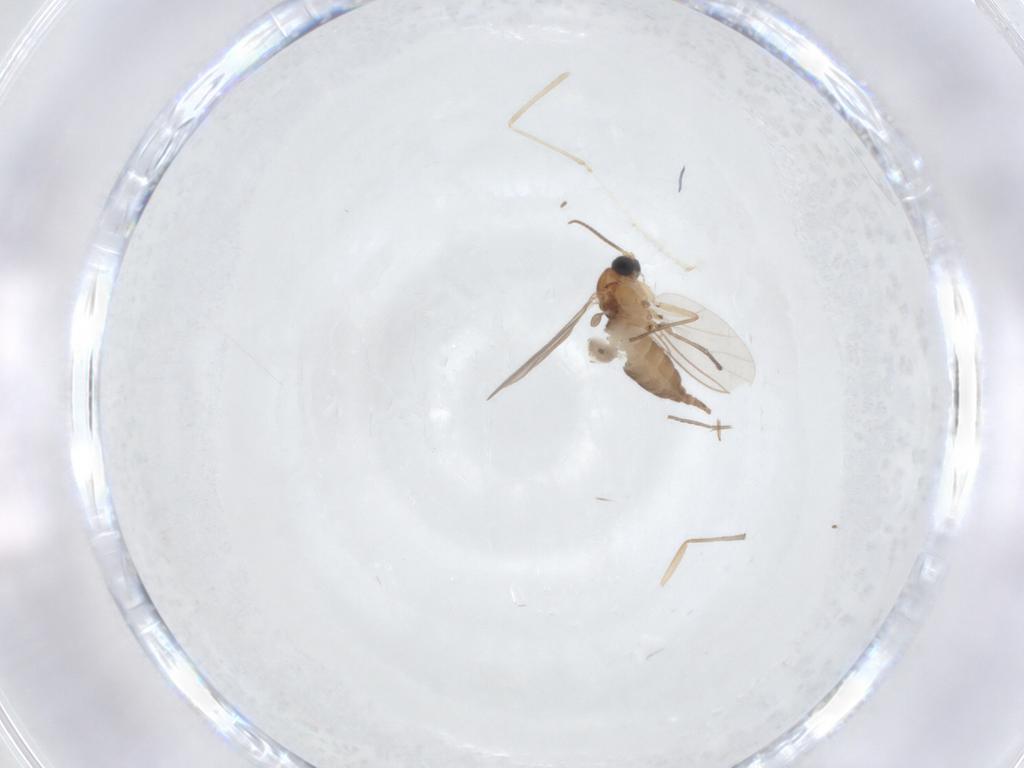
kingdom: Animalia
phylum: Arthropoda
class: Insecta
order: Diptera
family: Sciaridae
